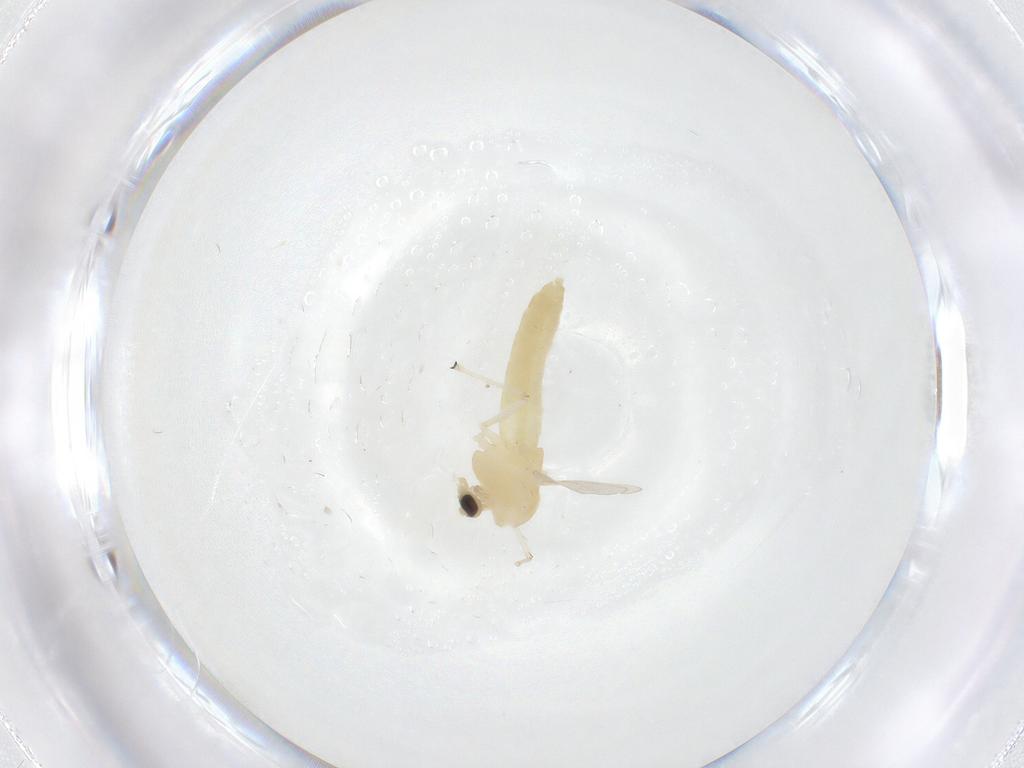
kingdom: Animalia
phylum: Arthropoda
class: Insecta
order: Diptera
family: Chironomidae
